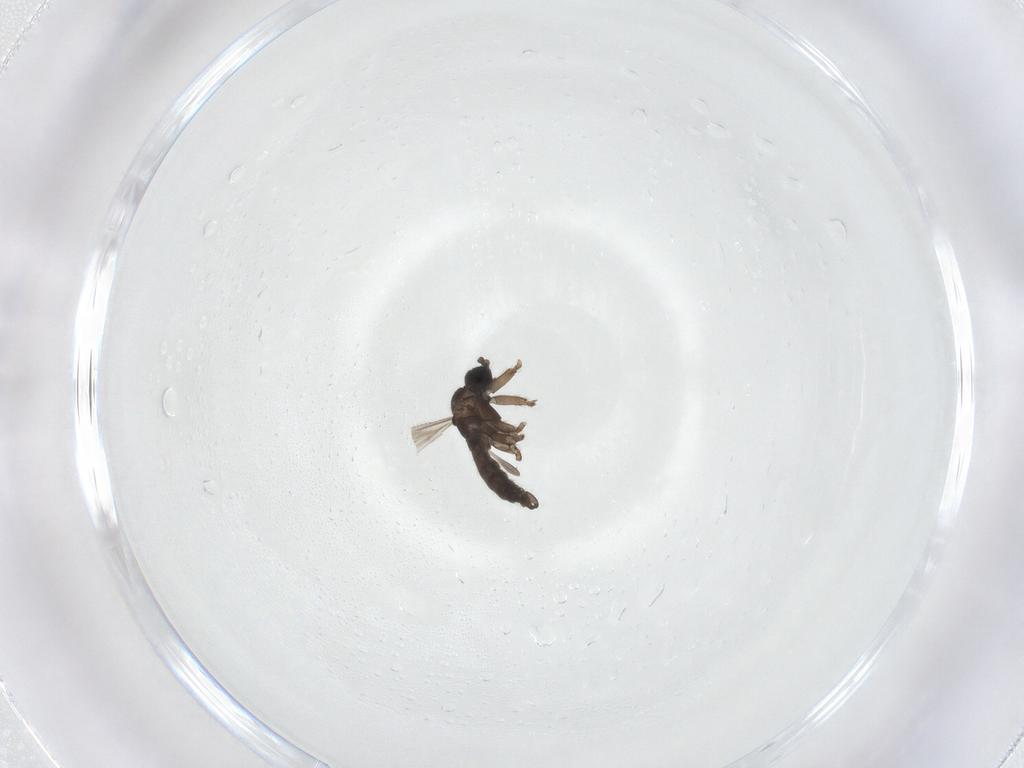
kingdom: Animalia
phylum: Arthropoda
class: Insecta
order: Diptera
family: Sciaridae
